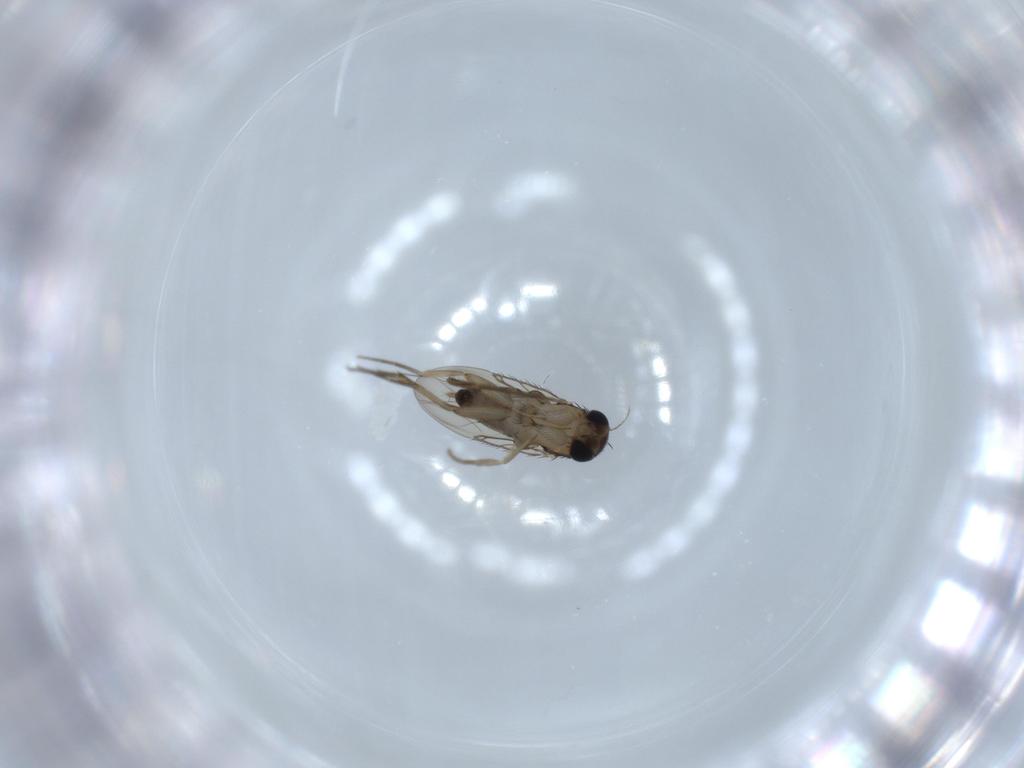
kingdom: Animalia
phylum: Arthropoda
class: Insecta
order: Diptera
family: Phoridae
